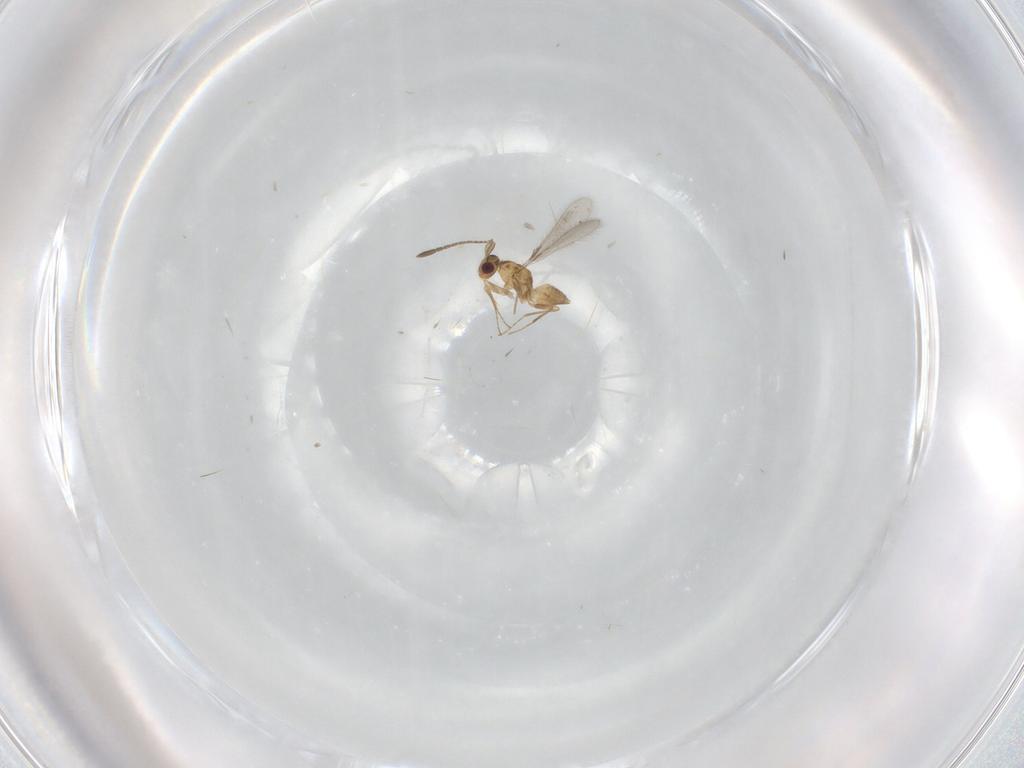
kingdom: Animalia
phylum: Arthropoda
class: Insecta
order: Hymenoptera
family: Mymaridae
